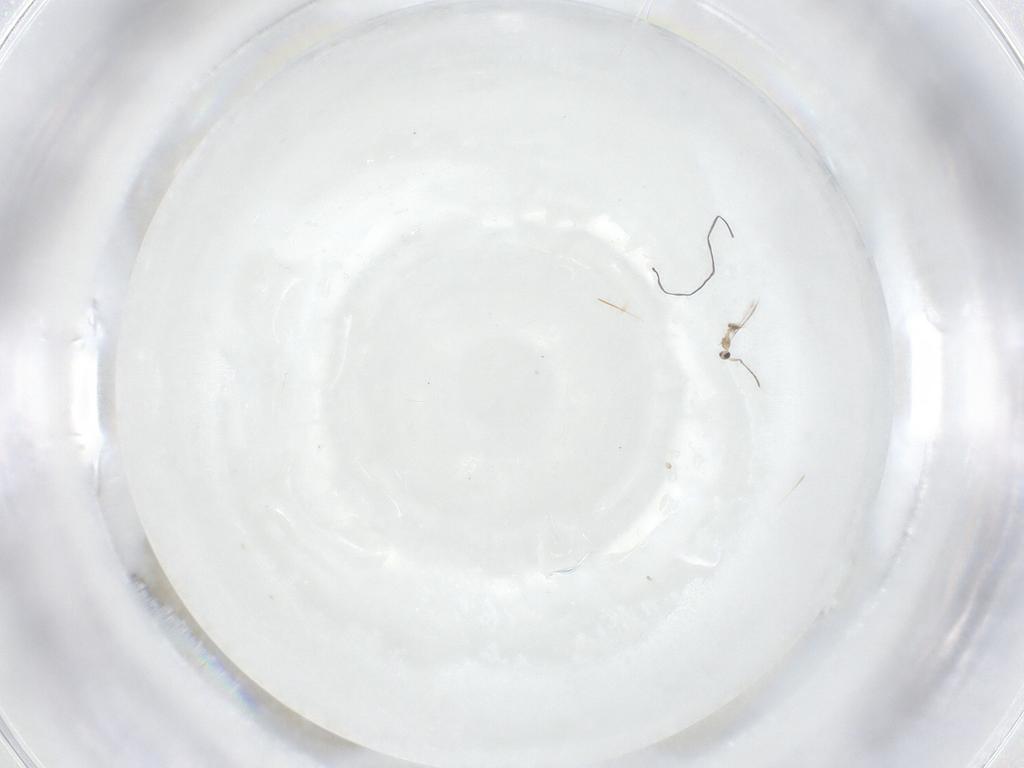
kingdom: Animalia
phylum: Arthropoda
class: Insecta
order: Hymenoptera
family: Mymaridae
